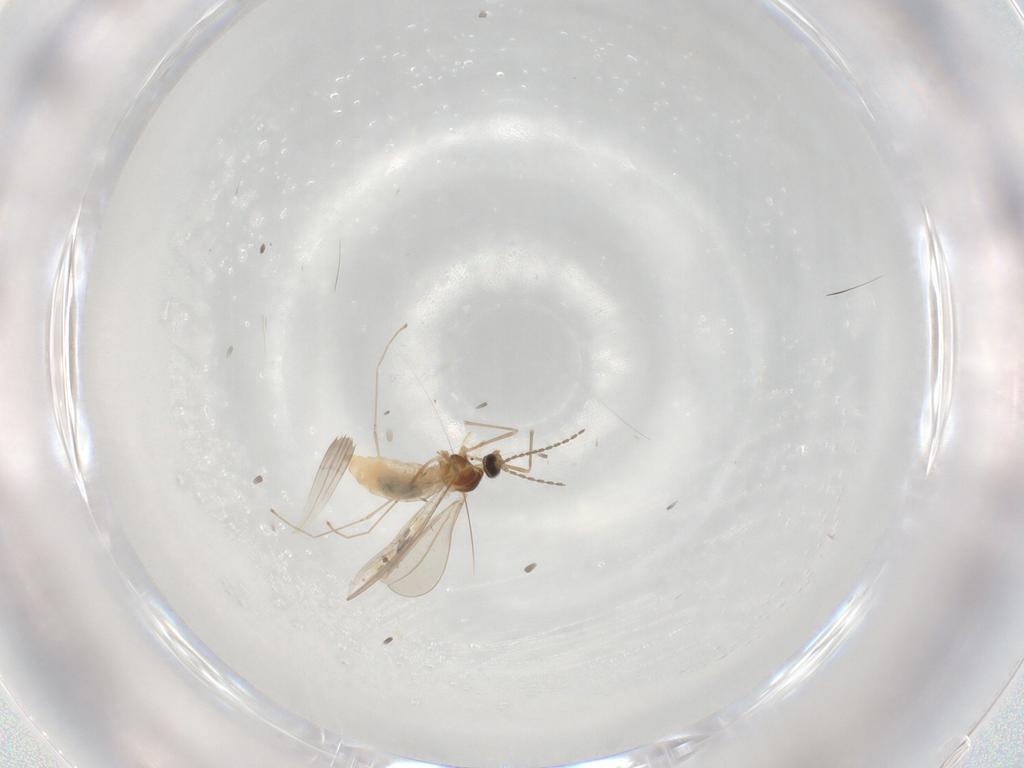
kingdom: Animalia
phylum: Arthropoda
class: Insecta
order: Diptera
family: Cecidomyiidae
